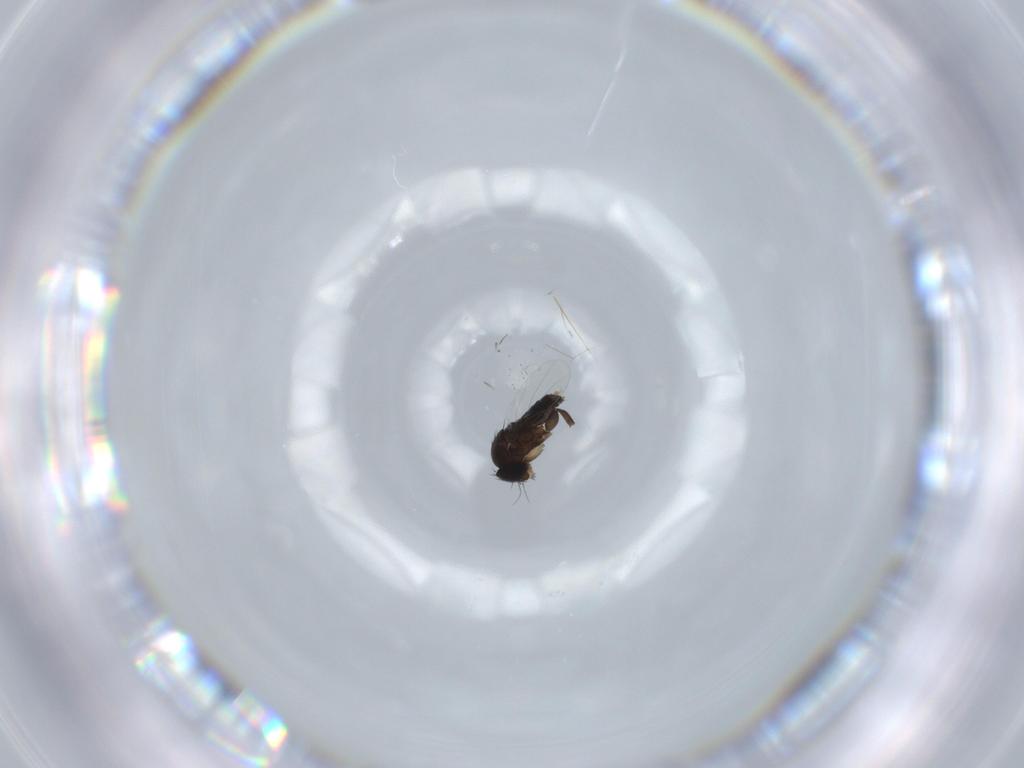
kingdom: Animalia
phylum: Arthropoda
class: Insecta
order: Diptera
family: Phoridae
